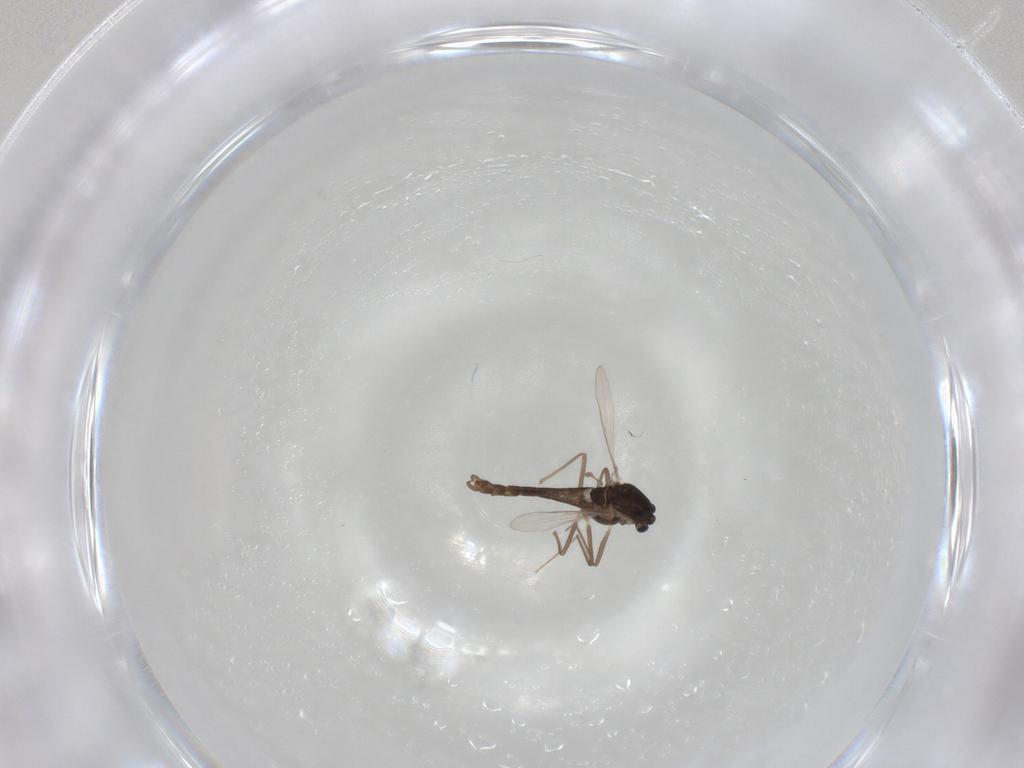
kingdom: Animalia
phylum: Arthropoda
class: Insecta
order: Diptera
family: Chironomidae
